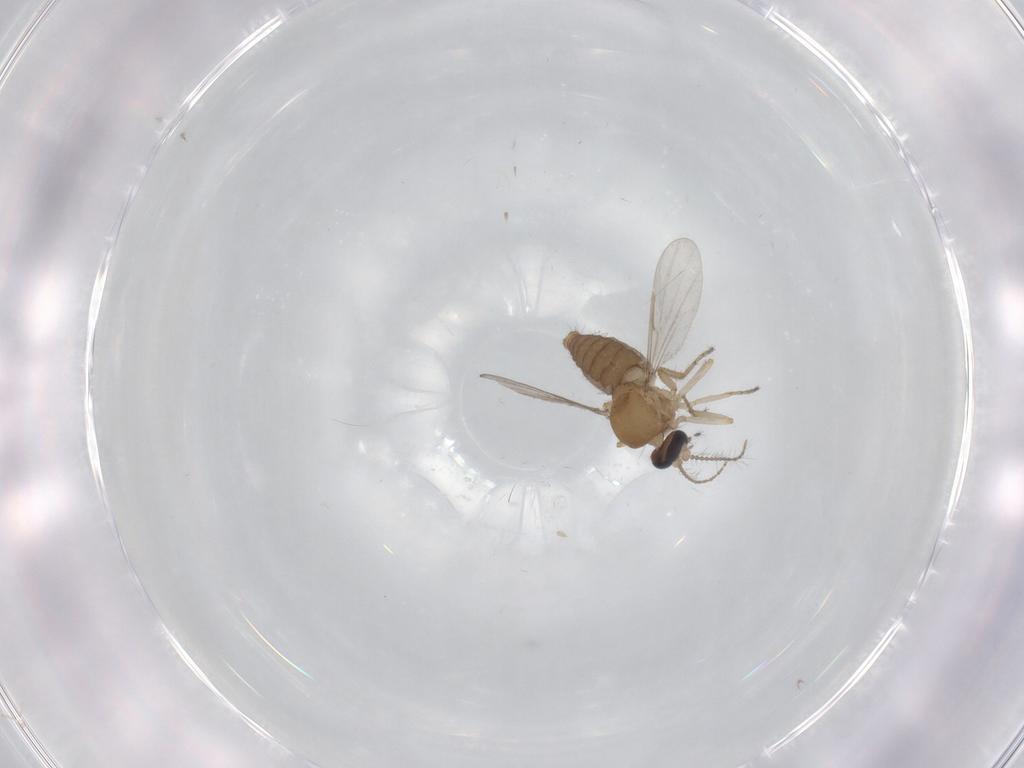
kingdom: Animalia
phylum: Arthropoda
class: Insecta
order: Diptera
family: Ceratopogonidae
